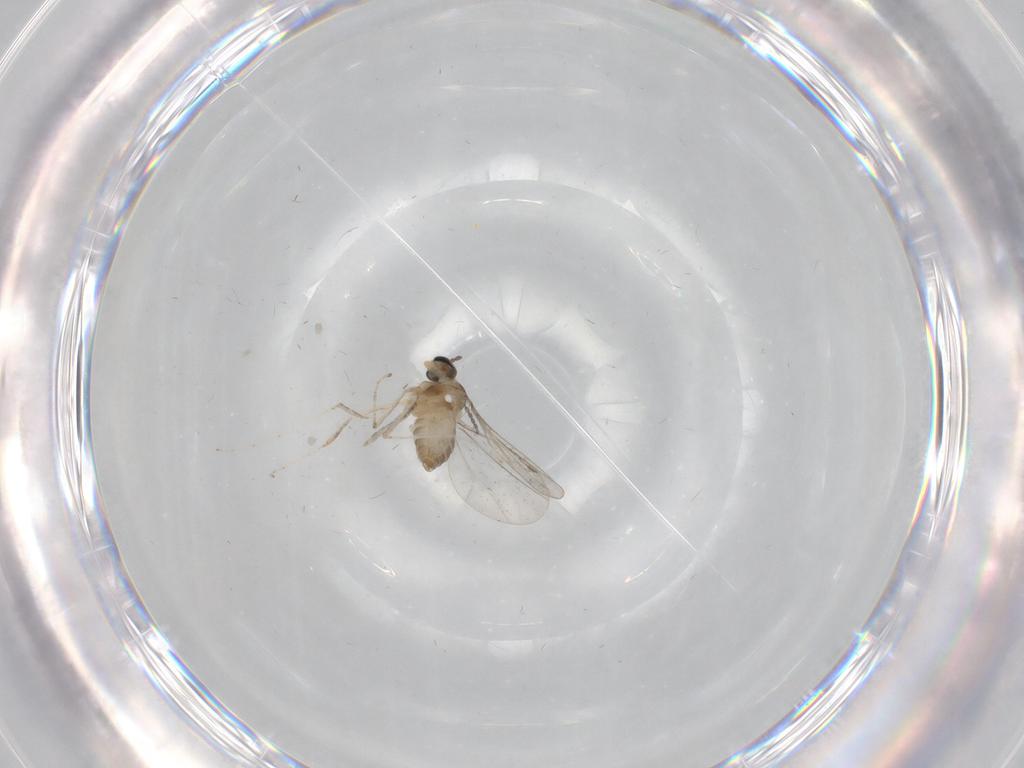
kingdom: Animalia
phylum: Arthropoda
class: Insecta
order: Diptera
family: Cecidomyiidae
